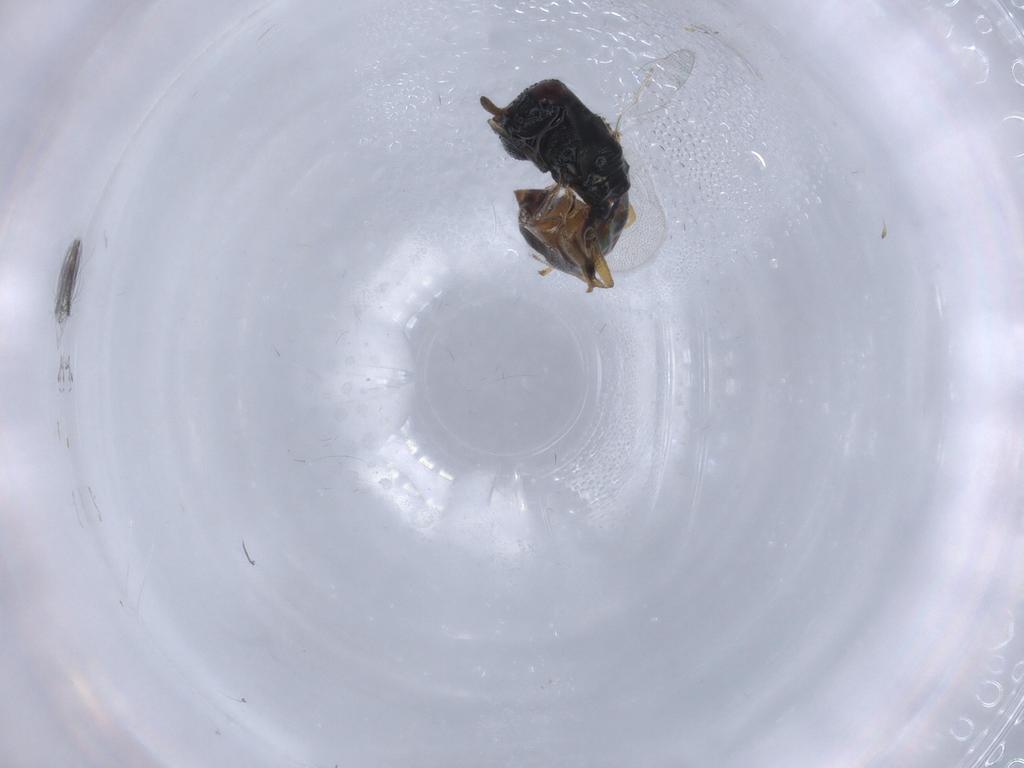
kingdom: Animalia
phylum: Arthropoda
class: Insecta
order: Hymenoptera
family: Pteromalidae
